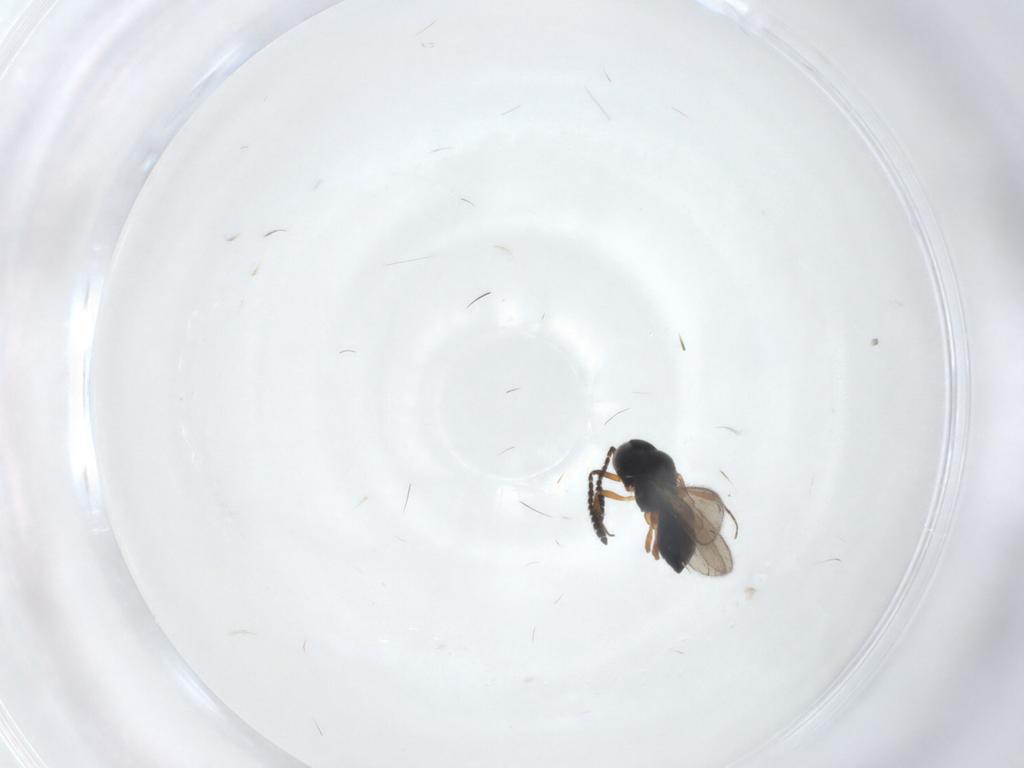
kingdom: Animalia
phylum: Arthropoda
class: Insecta
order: Hymenoptera
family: Scelionidae
